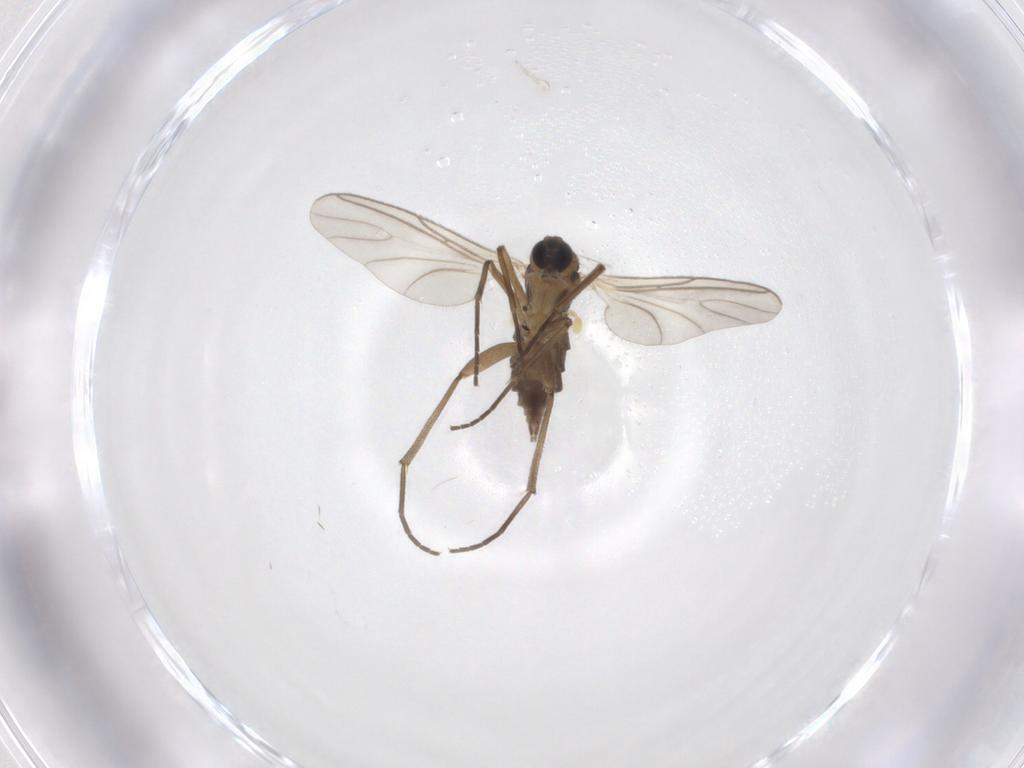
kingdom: Animalia
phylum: Arthropoda
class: Insecta
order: Diptera
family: Sciaridae
